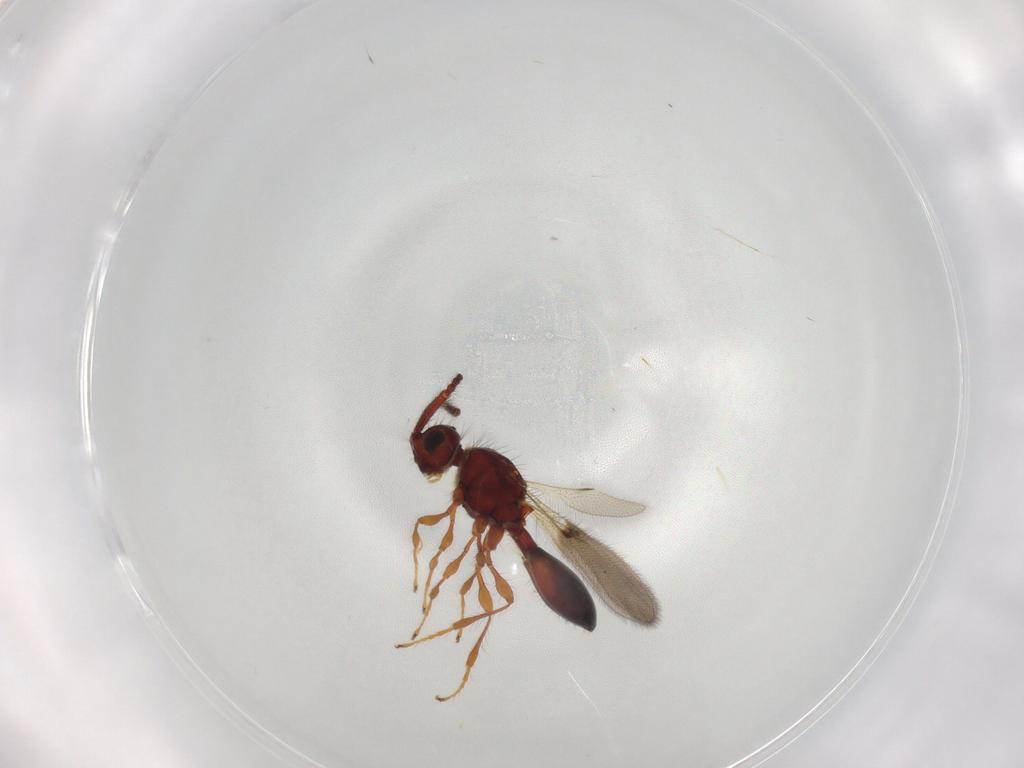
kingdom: Animalia
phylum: Arthropoda
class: Insecta
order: Hymenoptera
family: Diapriidae
